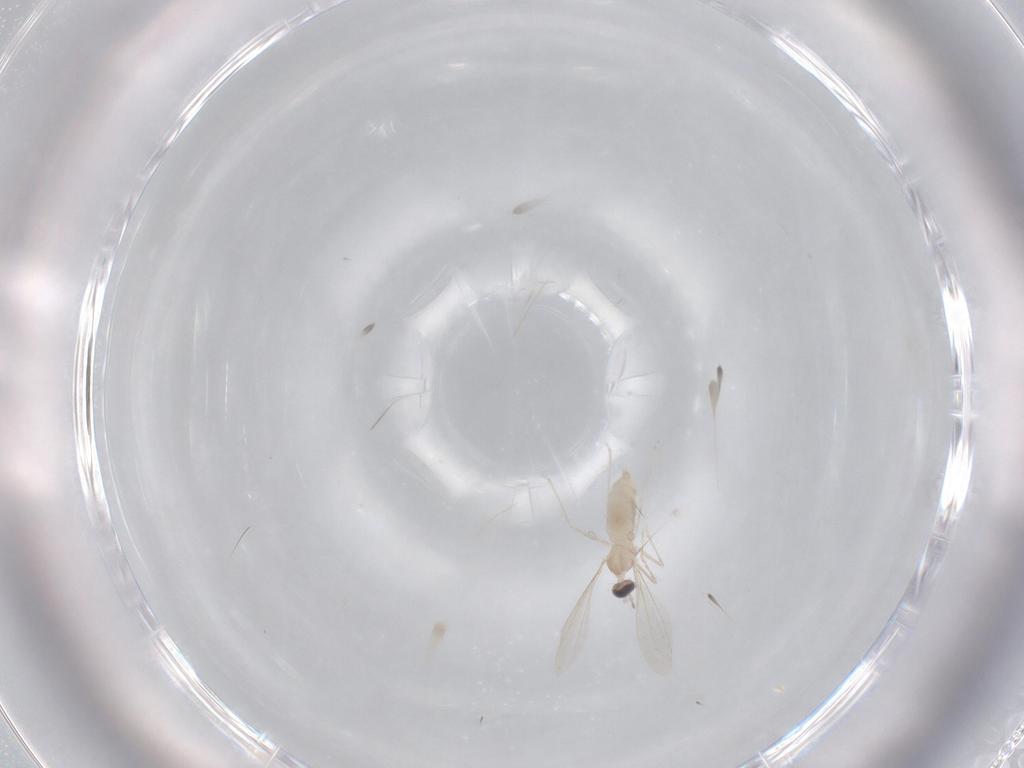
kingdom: Animalia
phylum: Arthropoda
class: Insecta
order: Diptera
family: Cecidomyiidae
